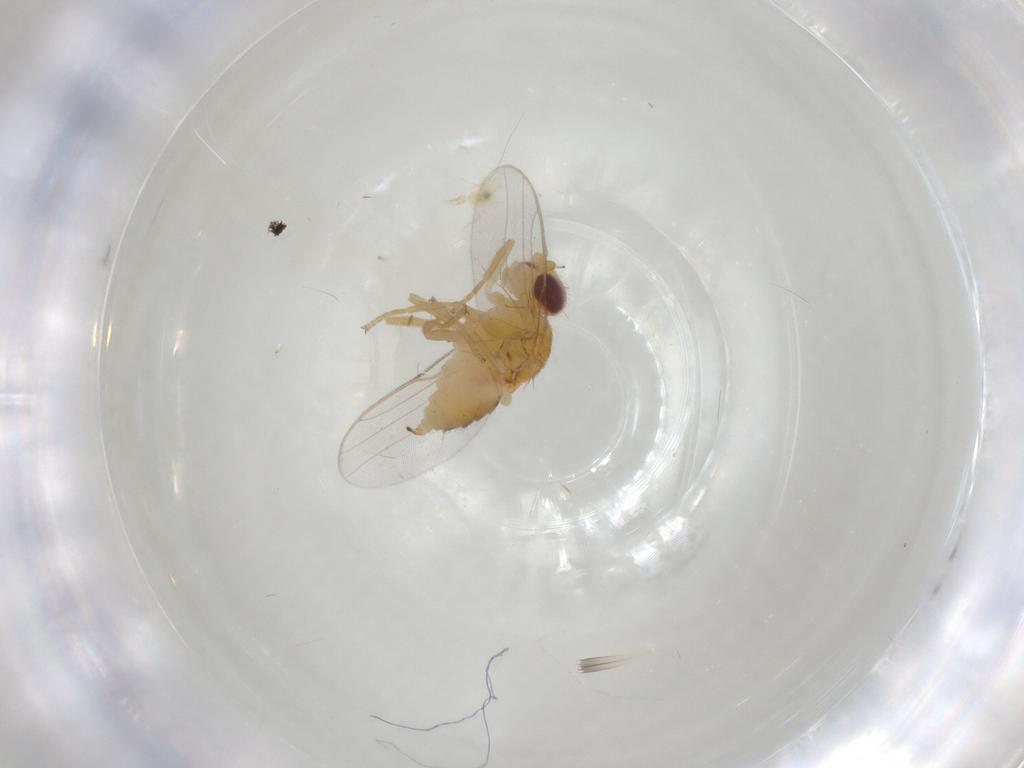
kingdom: Animalia
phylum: Arthropoda
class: Insecta
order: Diptera
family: Chloropidae
